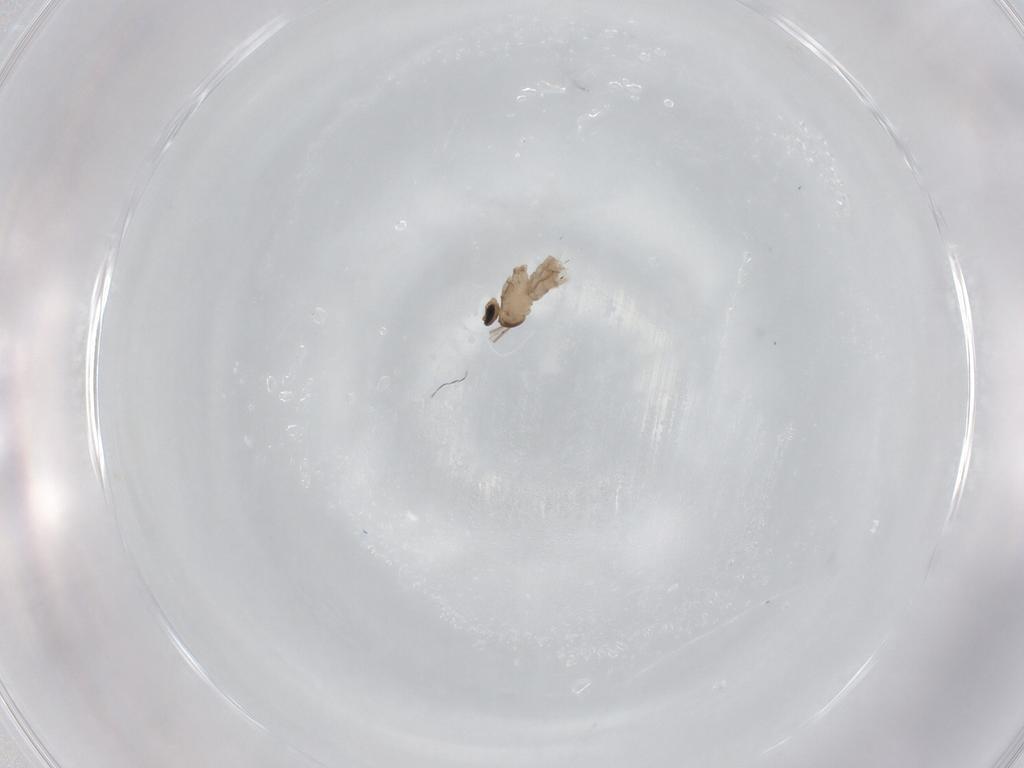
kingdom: Animalia
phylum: Arthropoda
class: Insecta
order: Diptera
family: Cecidomyiidae
